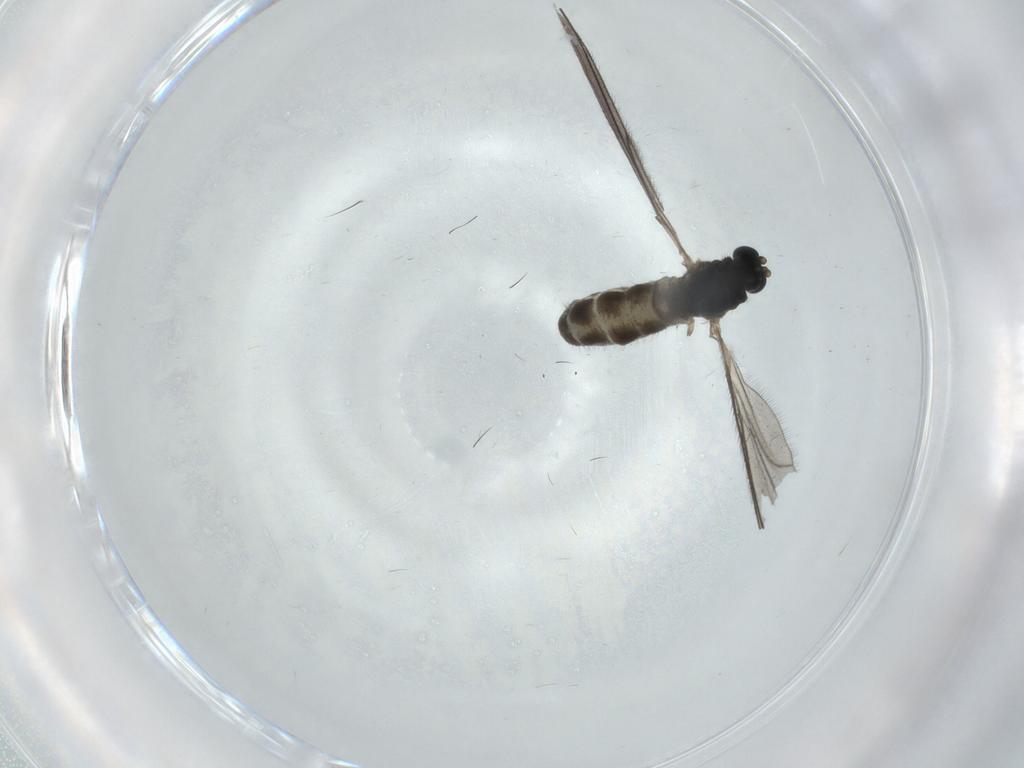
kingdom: Animalia
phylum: Arthropoda
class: Insecta
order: Diptera
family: Sciaridae
